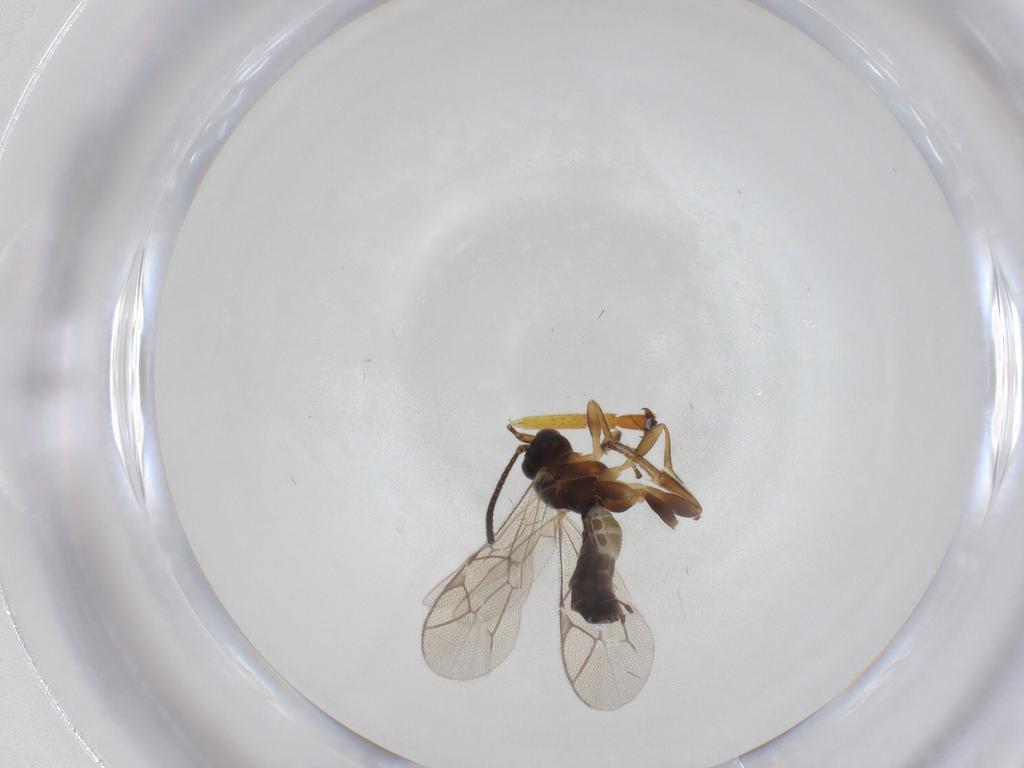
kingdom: Animalia
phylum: Arthropoda
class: Insecta
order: Hymenoptera
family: Ichneumonidae
